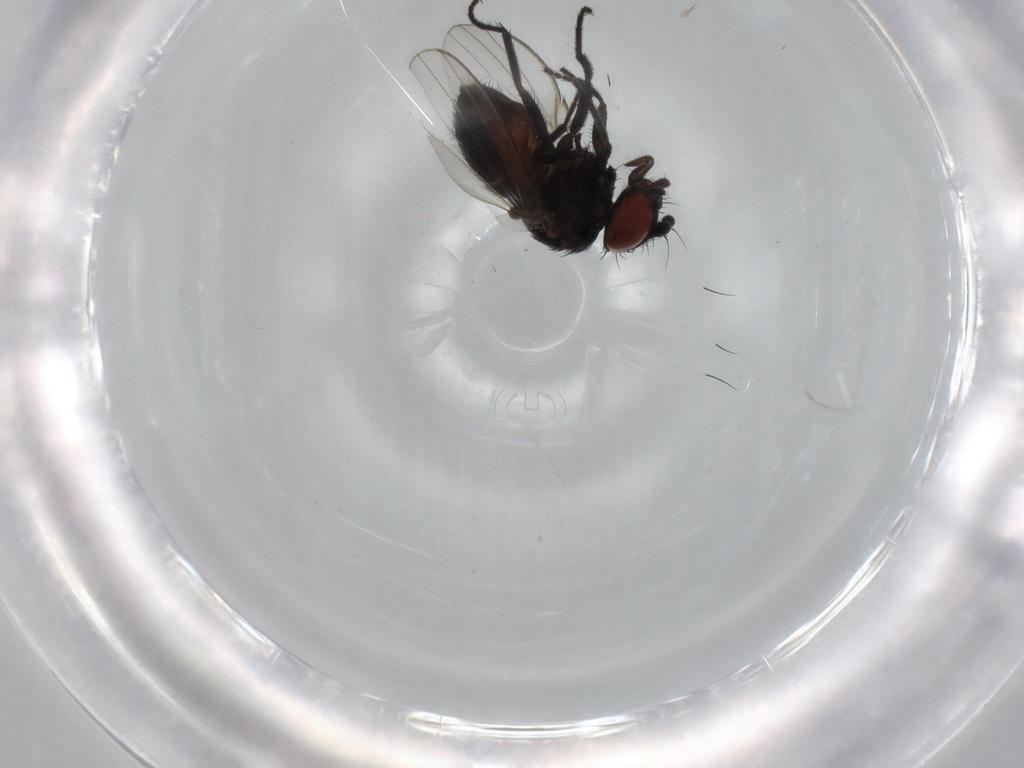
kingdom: Animalia
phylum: Arthropoda
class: Insecta
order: Diptera
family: Milichiidae
